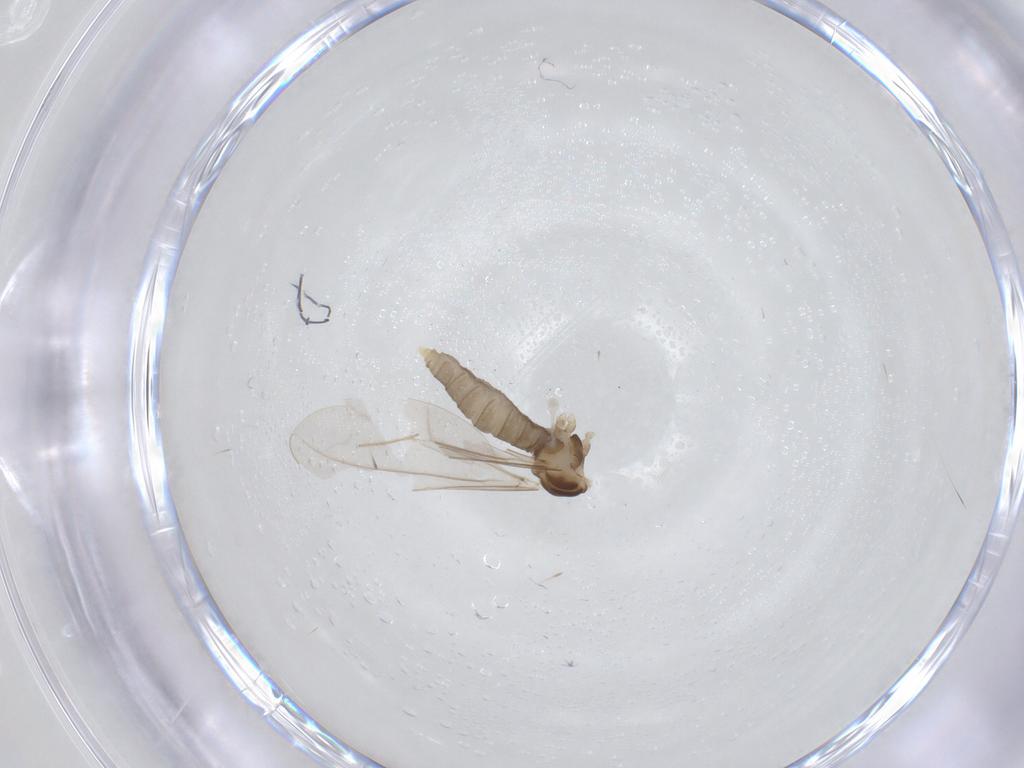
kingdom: Animalia
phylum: Arthropoda
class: Insecta
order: Diptera
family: Cecidomyiidae
